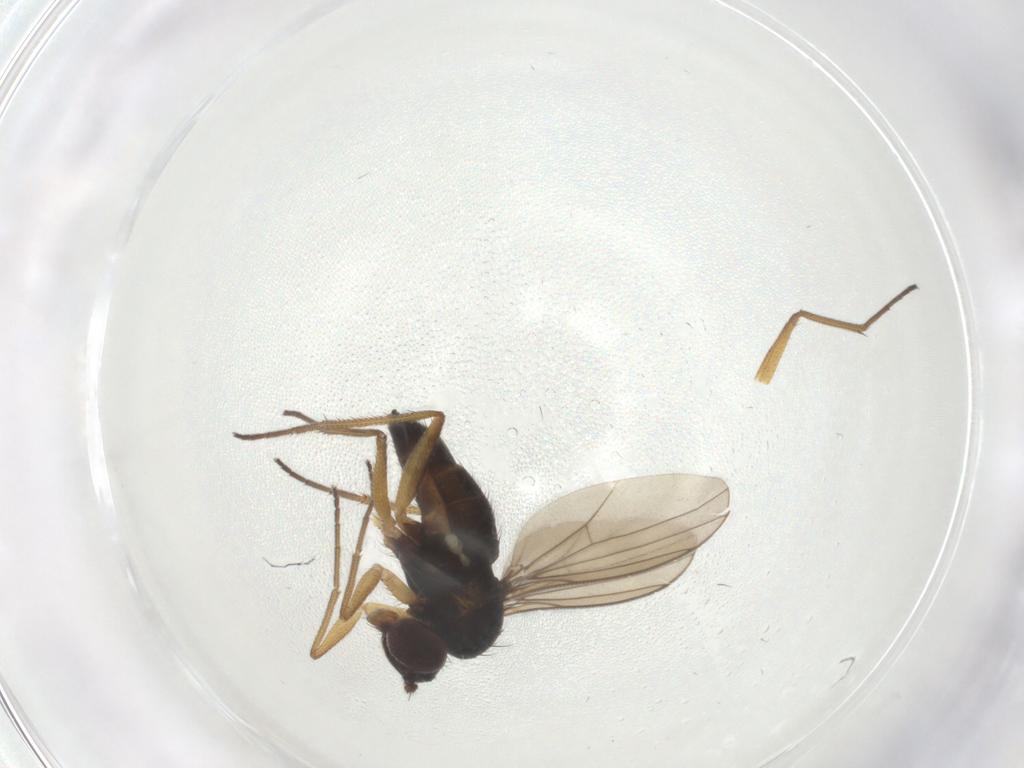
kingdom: Animalia
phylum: Arthropoda
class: Insecta
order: Diptera
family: Dolichopodidae
